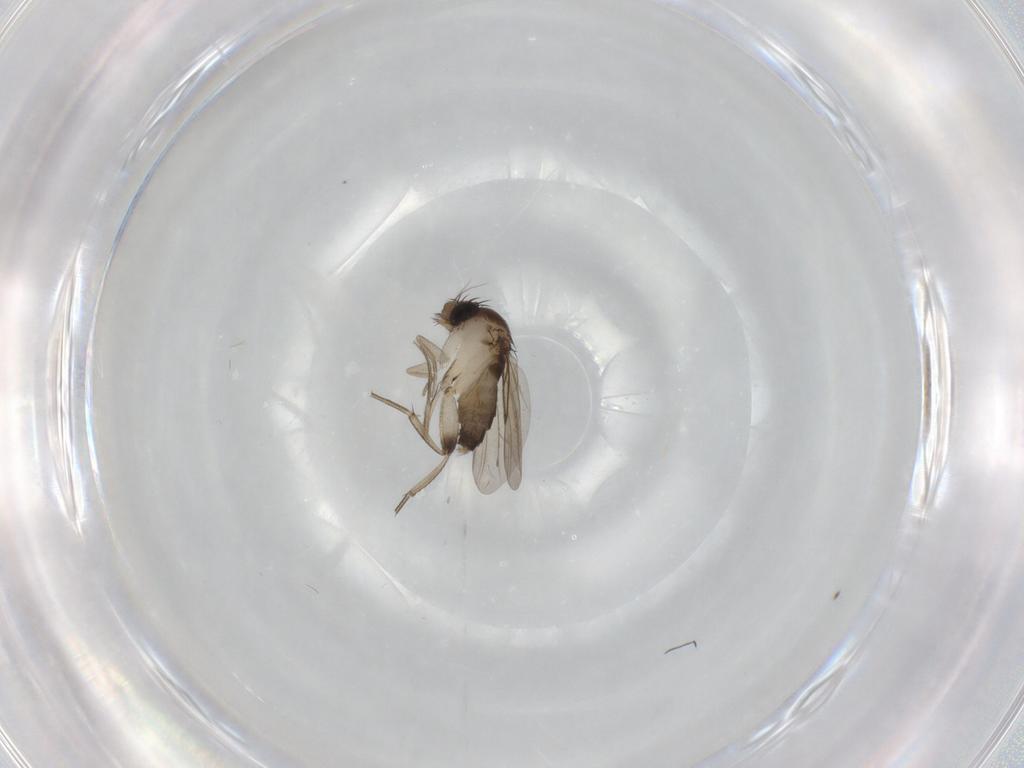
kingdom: Animalia
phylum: Arthropoda
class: Insecta
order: Diptera
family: Phoridae
